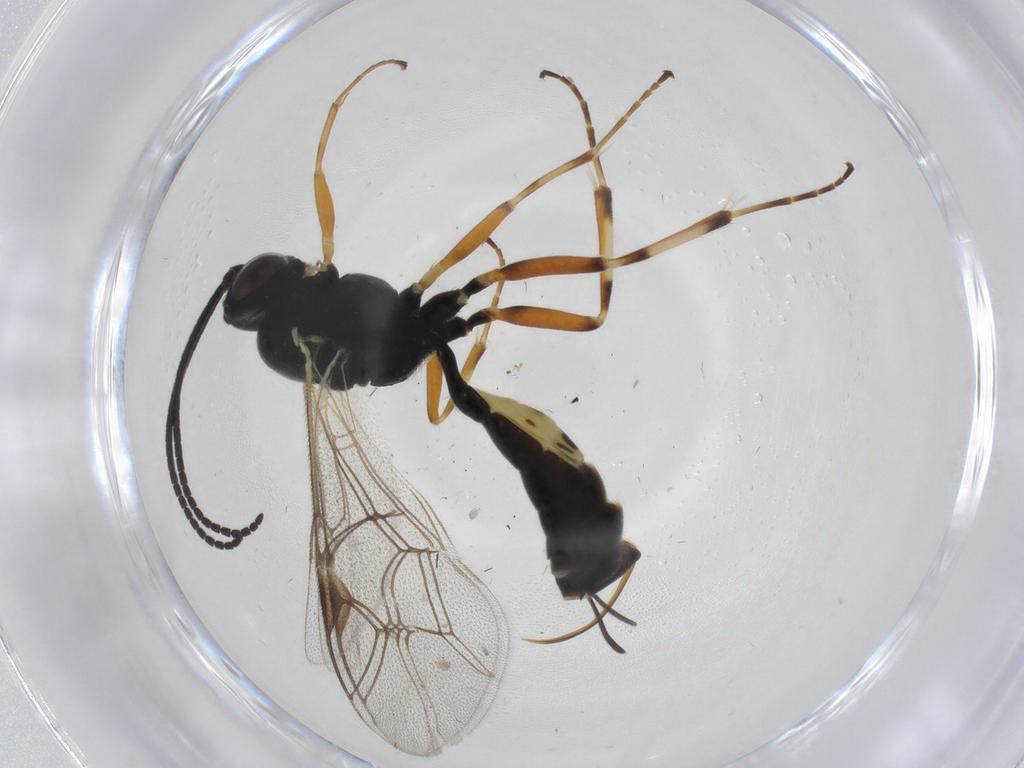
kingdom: Animalia
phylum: Arthropoda
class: Insecta
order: Hymenoptera
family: Ichneumonidae
